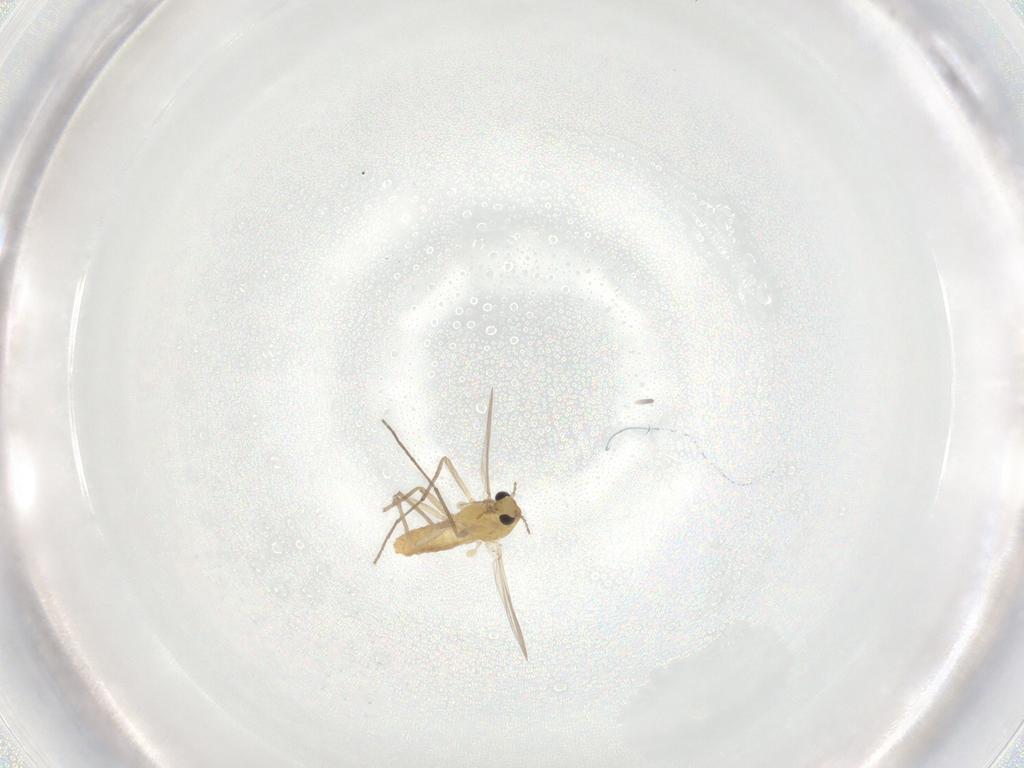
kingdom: Animalia
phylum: Arthropoda
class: Insecta
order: Diptera
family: Chironomidae
